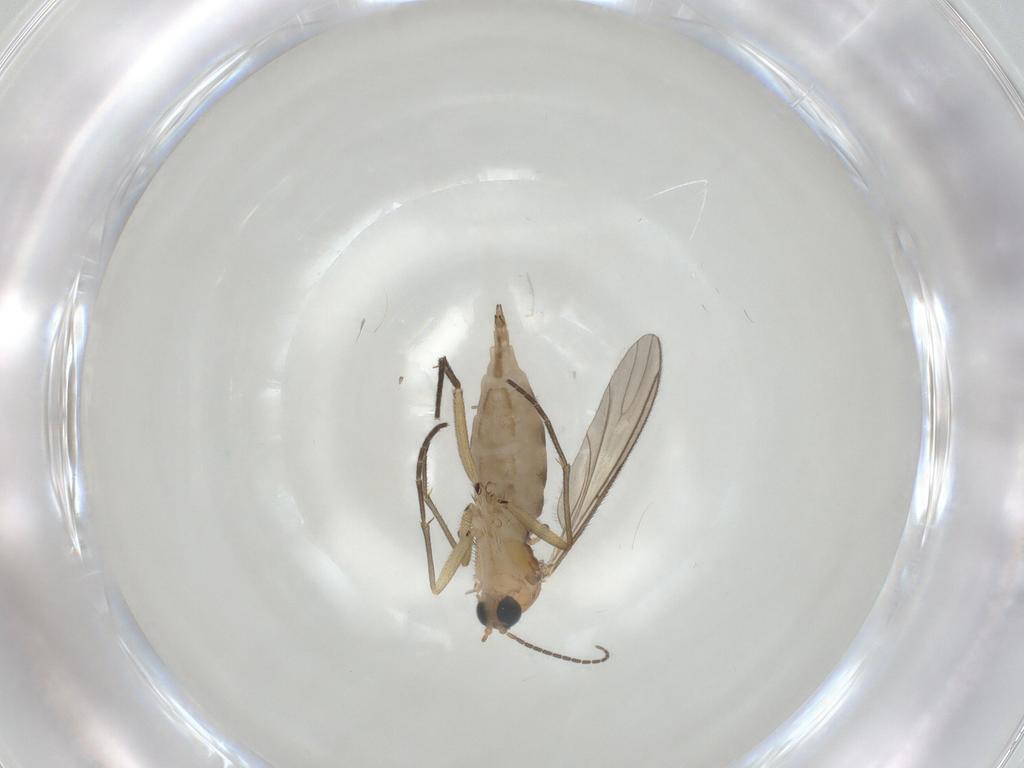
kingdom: Animalia
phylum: Arthropoda
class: Insecta
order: Diptera
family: Sciaridae
